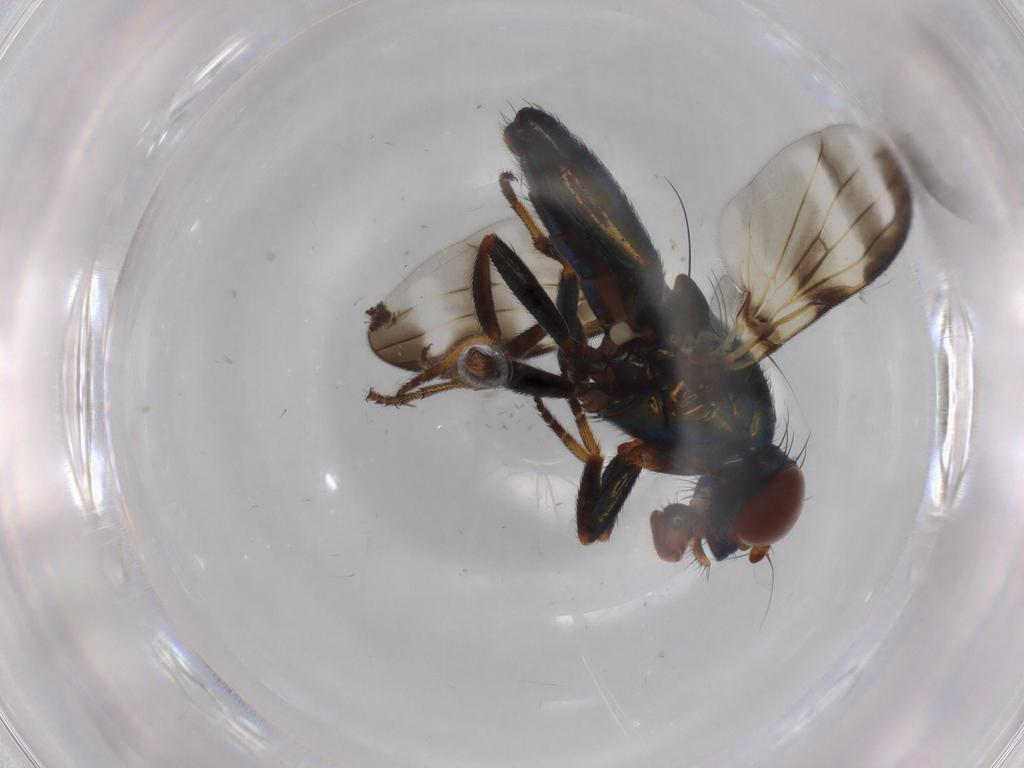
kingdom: Animalia
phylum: Arthropoda
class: Insecta
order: Diptera
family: Ulidiidae
